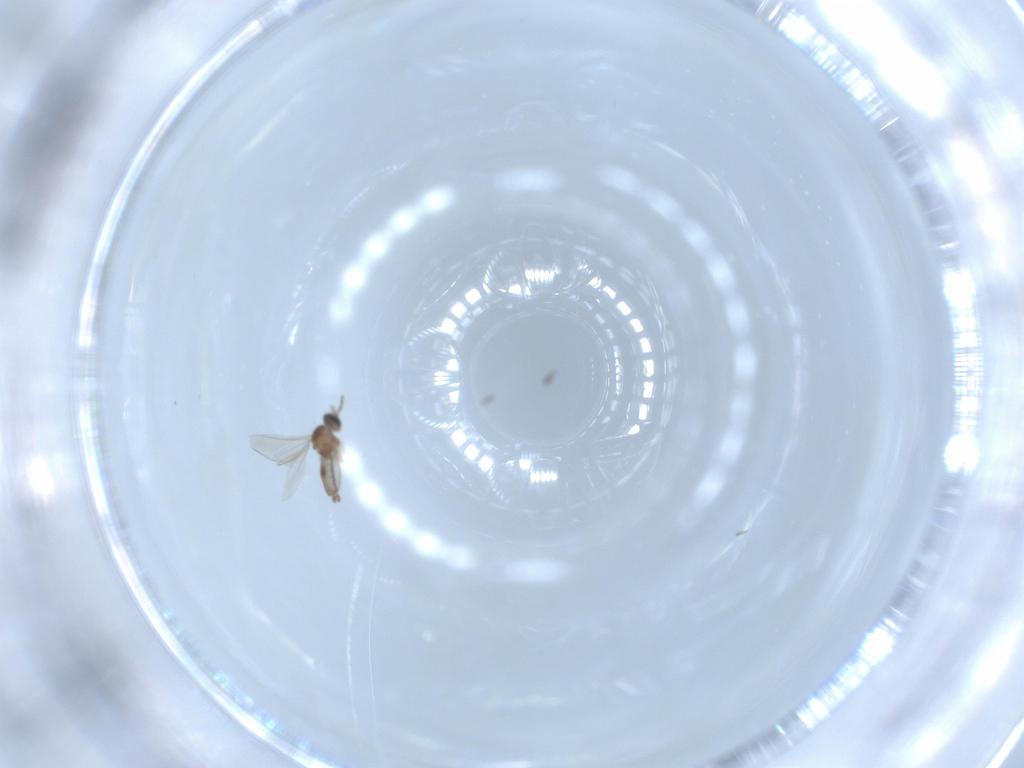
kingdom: Animalia
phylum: Arthropoda
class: Insecta
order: Diptera
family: Cecidomyiidae
